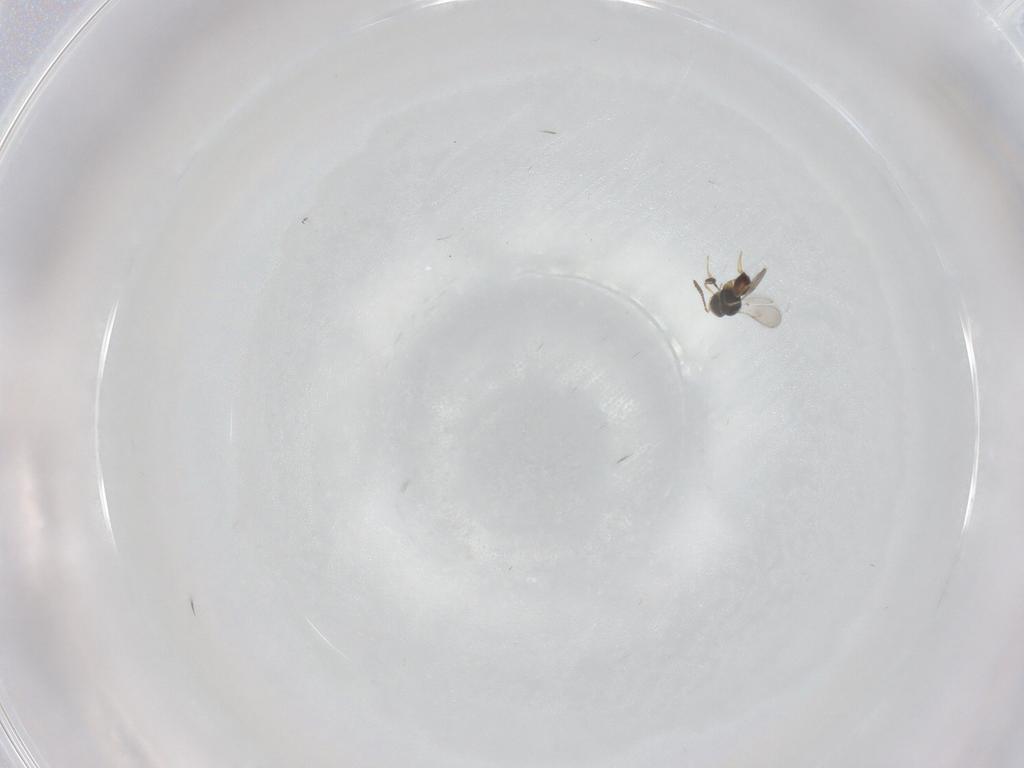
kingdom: Animalia
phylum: Arthropoda
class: Insecta
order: Hymenoptera
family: Scelionidae
